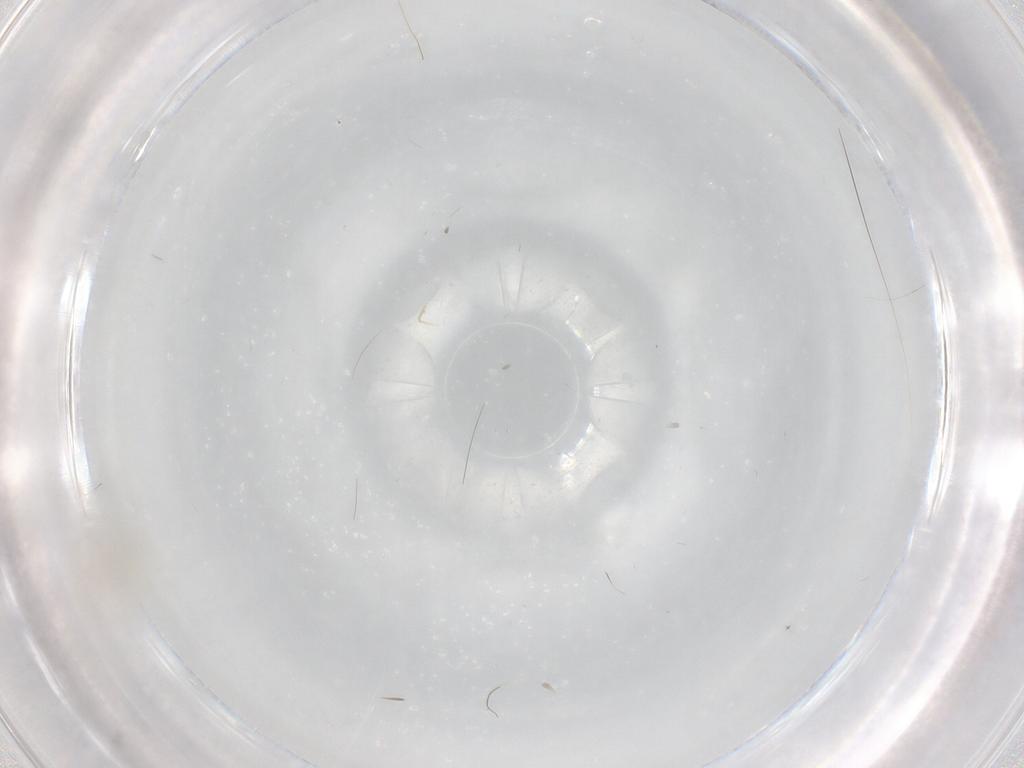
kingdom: Animalia
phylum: Arthropoda
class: Insecta
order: Diptera
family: Cecidomyiidae
